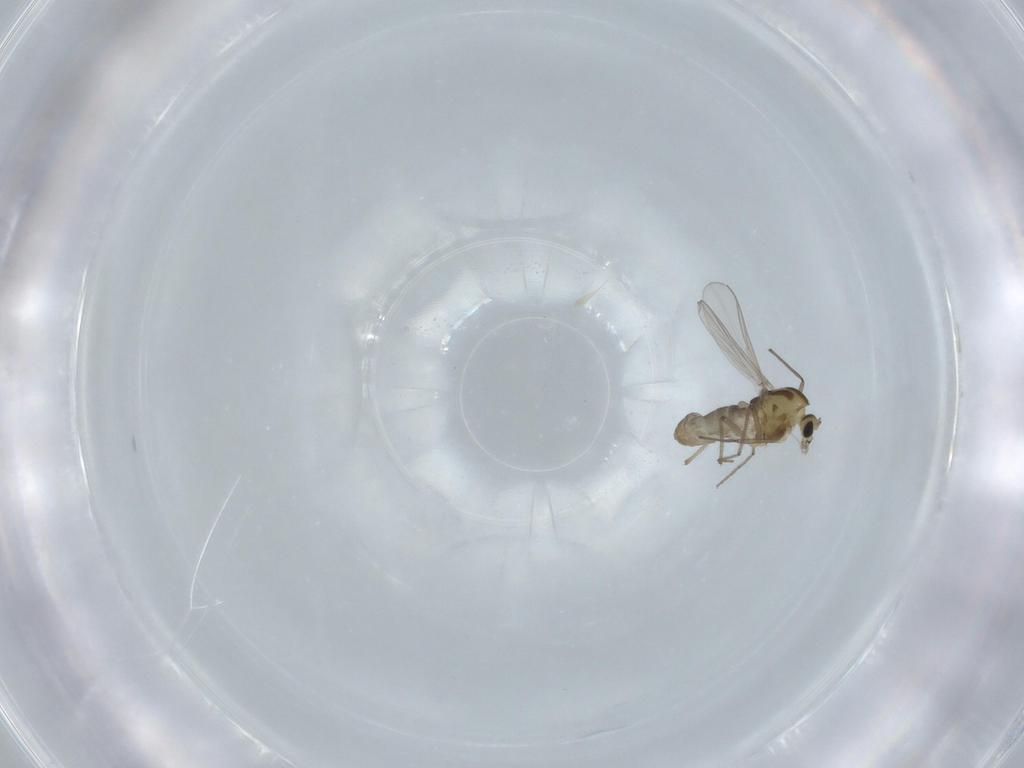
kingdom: Animalia
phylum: Arthropoda
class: Insecta
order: Diptera
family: Chironomidae
